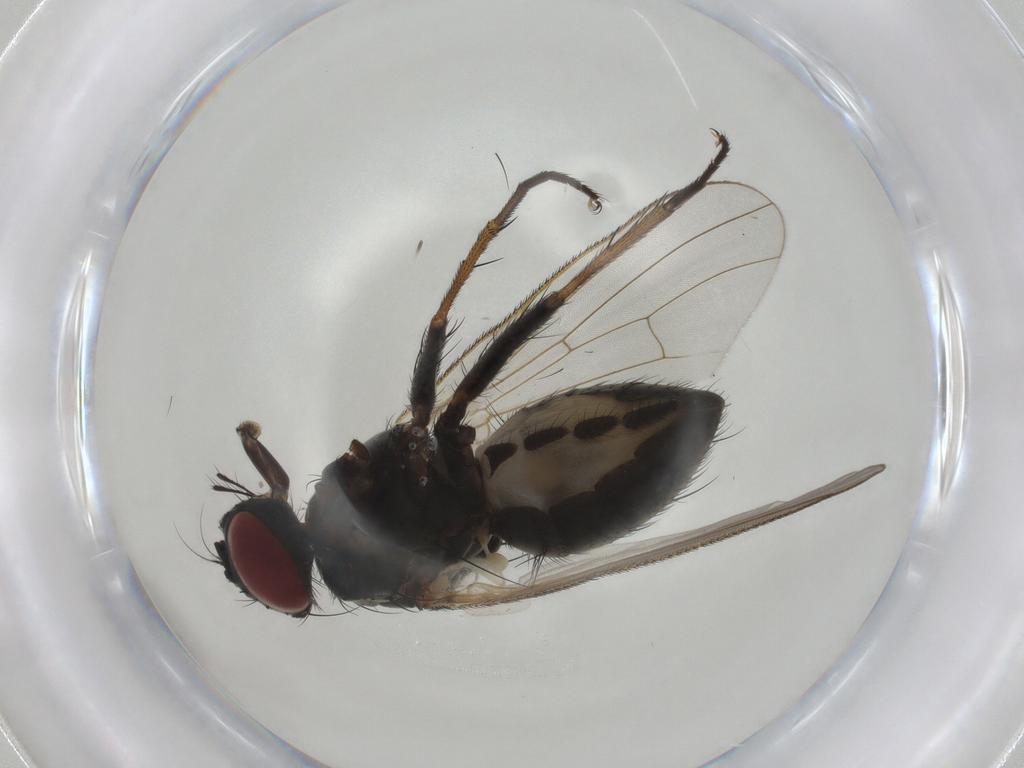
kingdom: Animalia
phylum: Arthropoda
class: Insecta
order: Diptera
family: Muscidae
